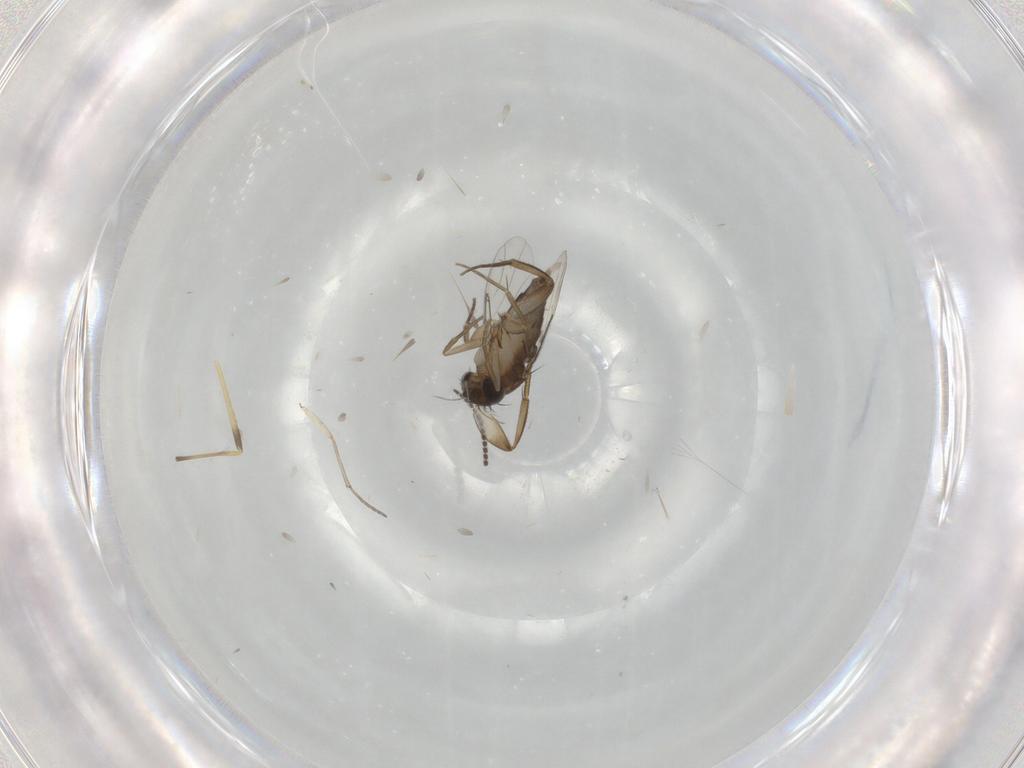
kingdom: Animalia
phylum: Arthropoda
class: Insecta
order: Diptera
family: Phoridae
